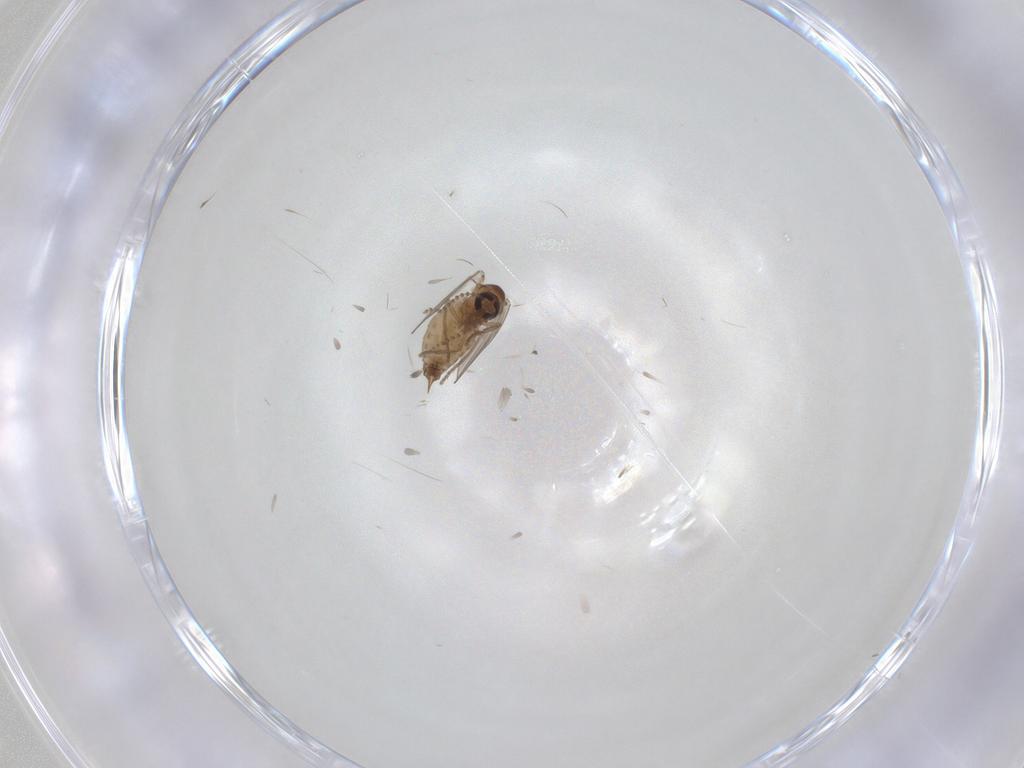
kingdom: Animalia
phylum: Arthropoda
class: Insecta
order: Diptera
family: Psychodidae
